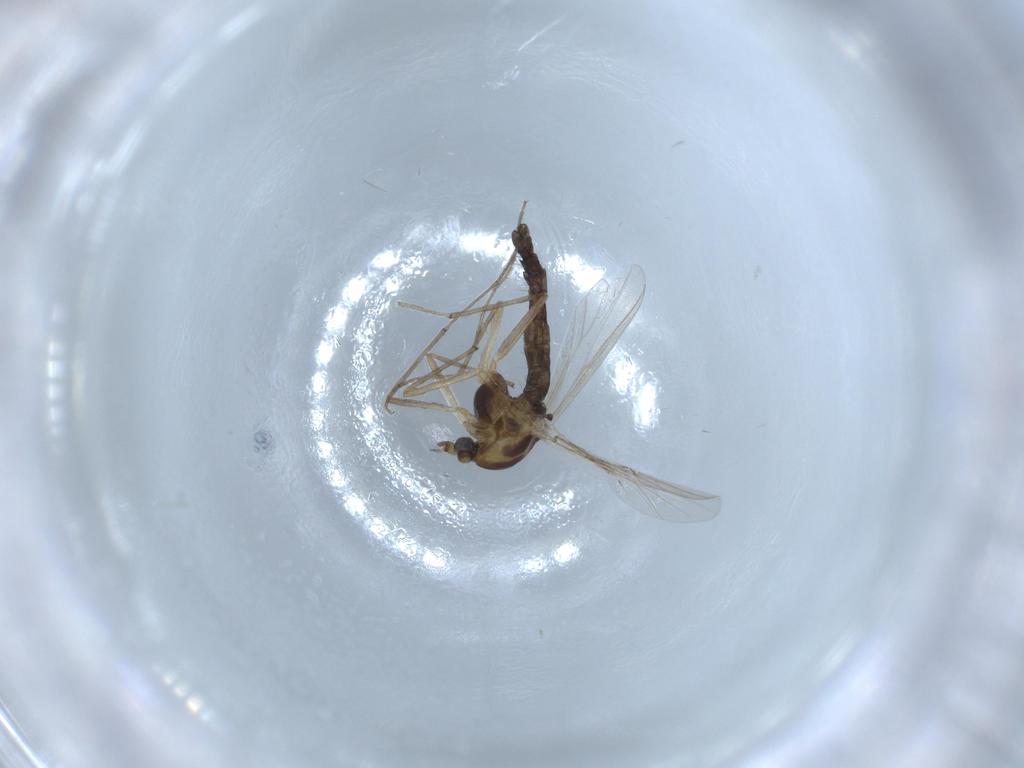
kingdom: Animalia
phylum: Arthropoda
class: Insecta
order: Diptera
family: Chironomidae
